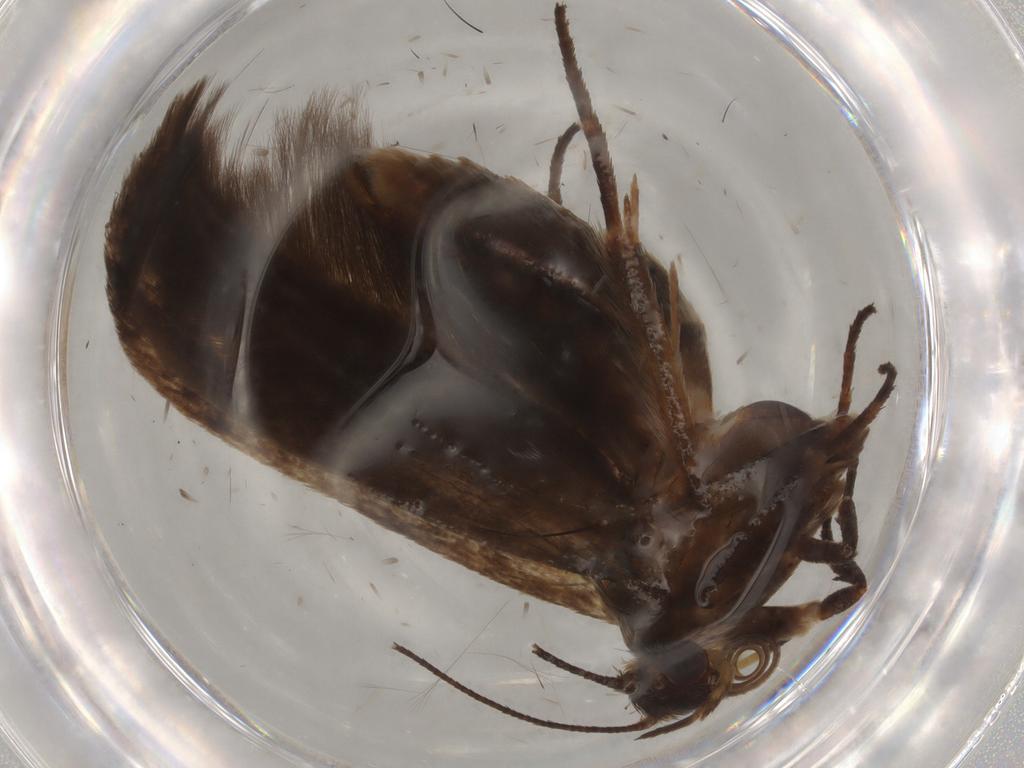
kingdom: Animalia
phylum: Arthropoda
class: Insecta
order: Lepidoptera
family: Scythrididae
